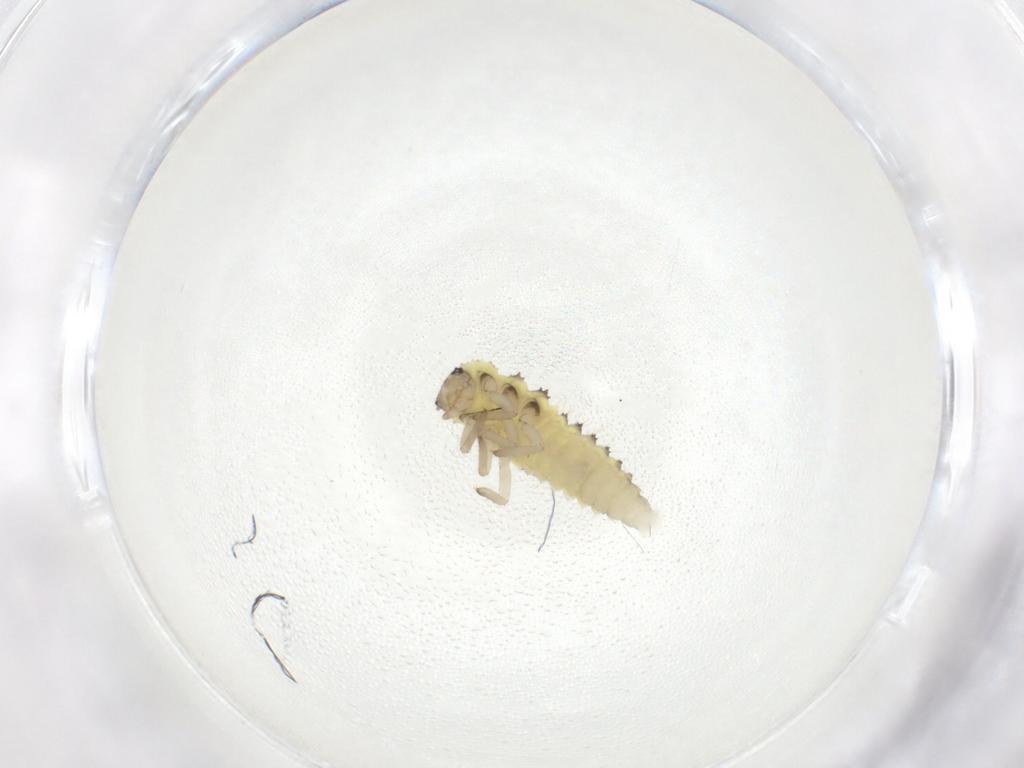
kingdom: Animalia
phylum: Arthropoda
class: Insecta
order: Coleoptera
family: Coccinellidae
